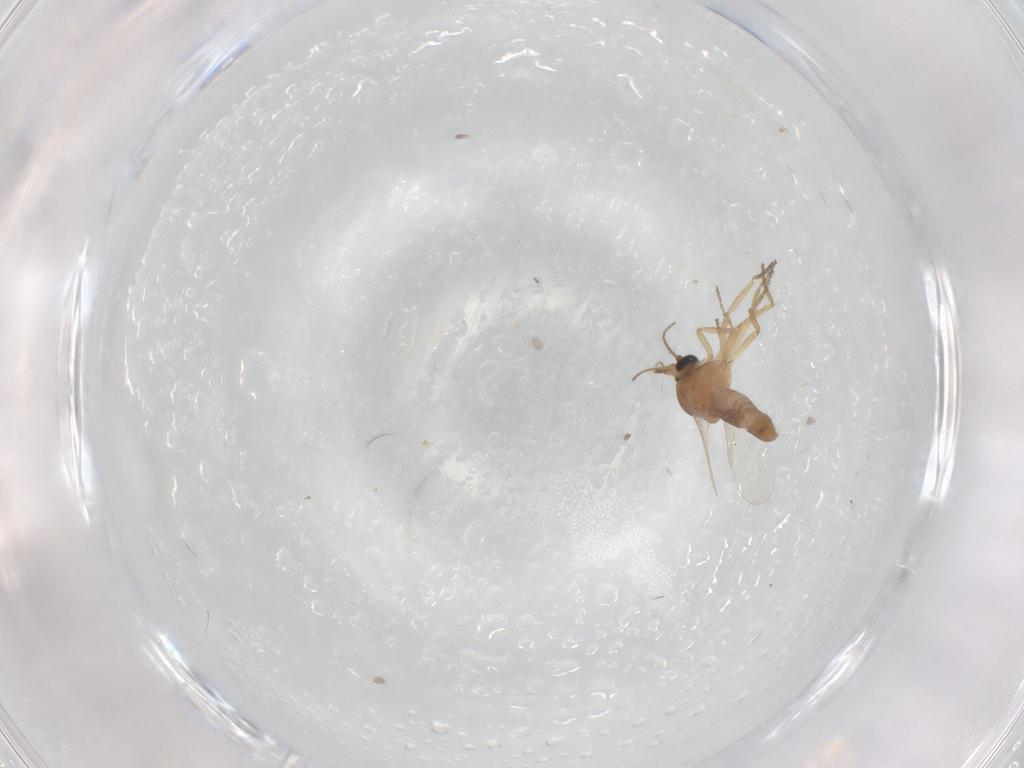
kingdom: Animalia
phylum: Arthropoda
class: Insecta
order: Diptera
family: Ceratopogonidae
